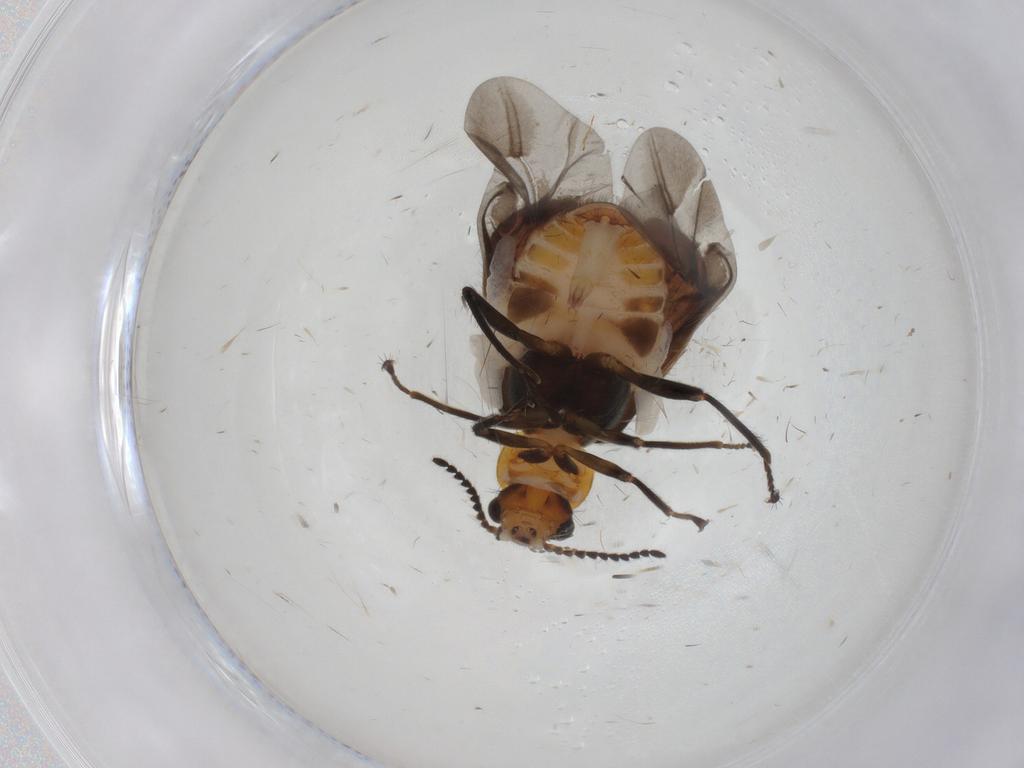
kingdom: Animalia
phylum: Arthropoda
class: Insecta
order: Coleoptera
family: Melyridae
